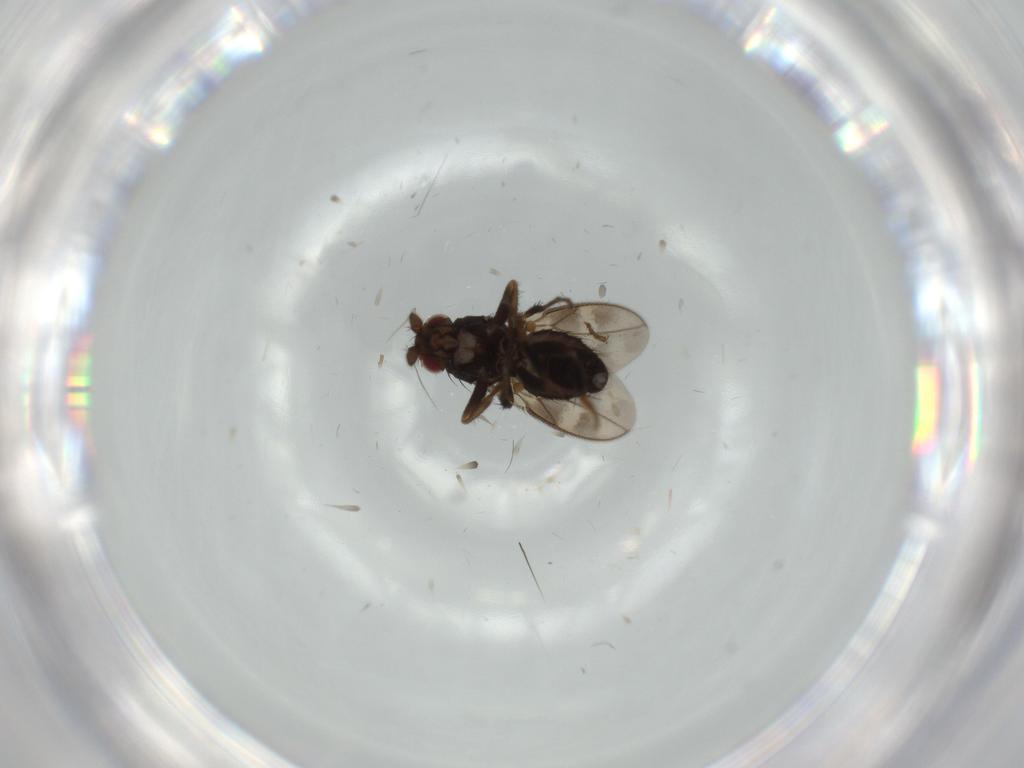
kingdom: Animalia
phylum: Arthropoda
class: Insecta
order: Diptera
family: Sphaeroceridae
